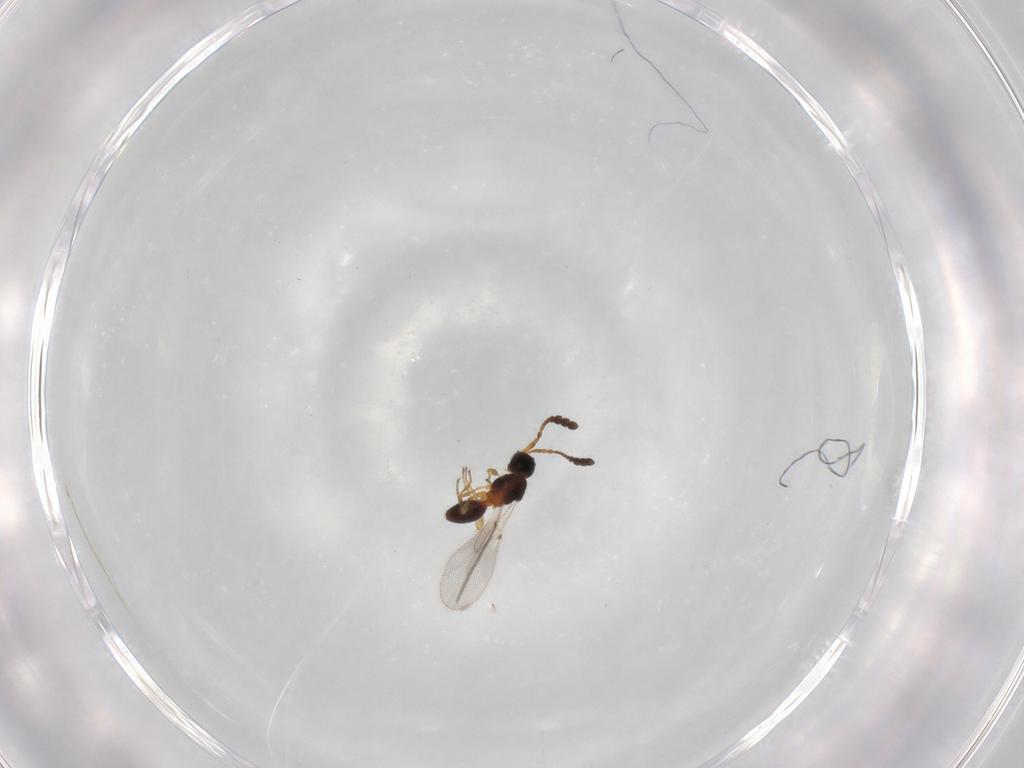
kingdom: Animalia
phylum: Arthropoda
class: Insecta
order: Hymenoptera
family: Diapriidae
